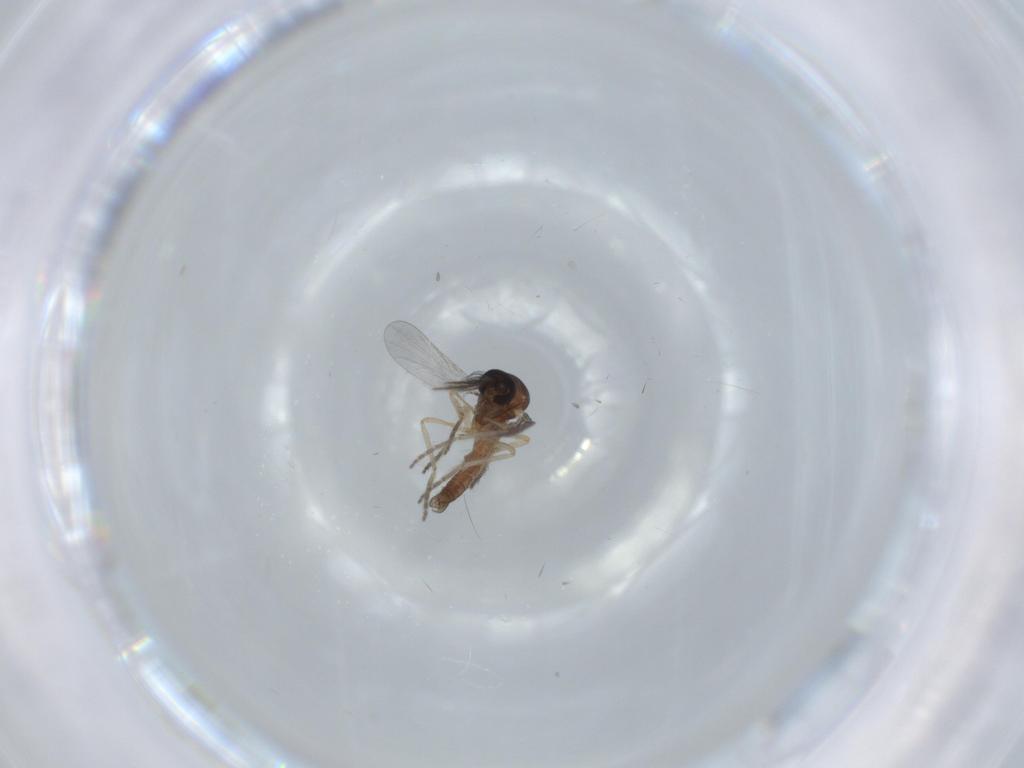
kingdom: Animalia
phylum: Arthropoda
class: Insecta
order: Diptera
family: Ceratopogonidae
